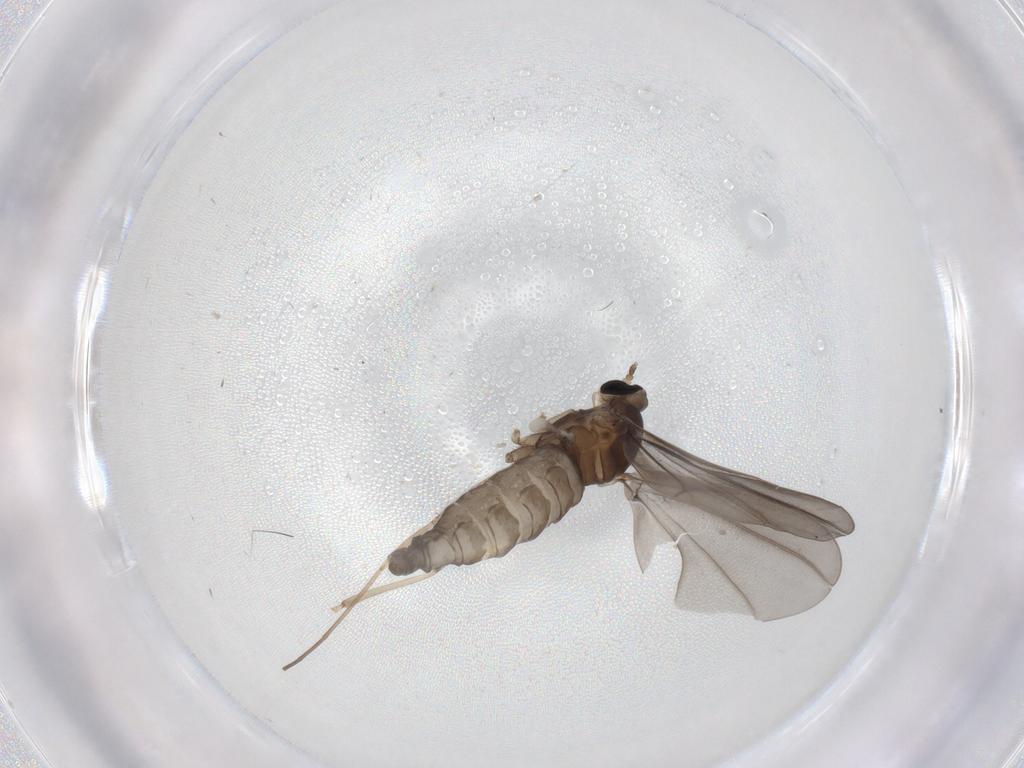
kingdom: Animalia
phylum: Arthropoda
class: Insecta
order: Diptera
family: Cecidomyiidae
